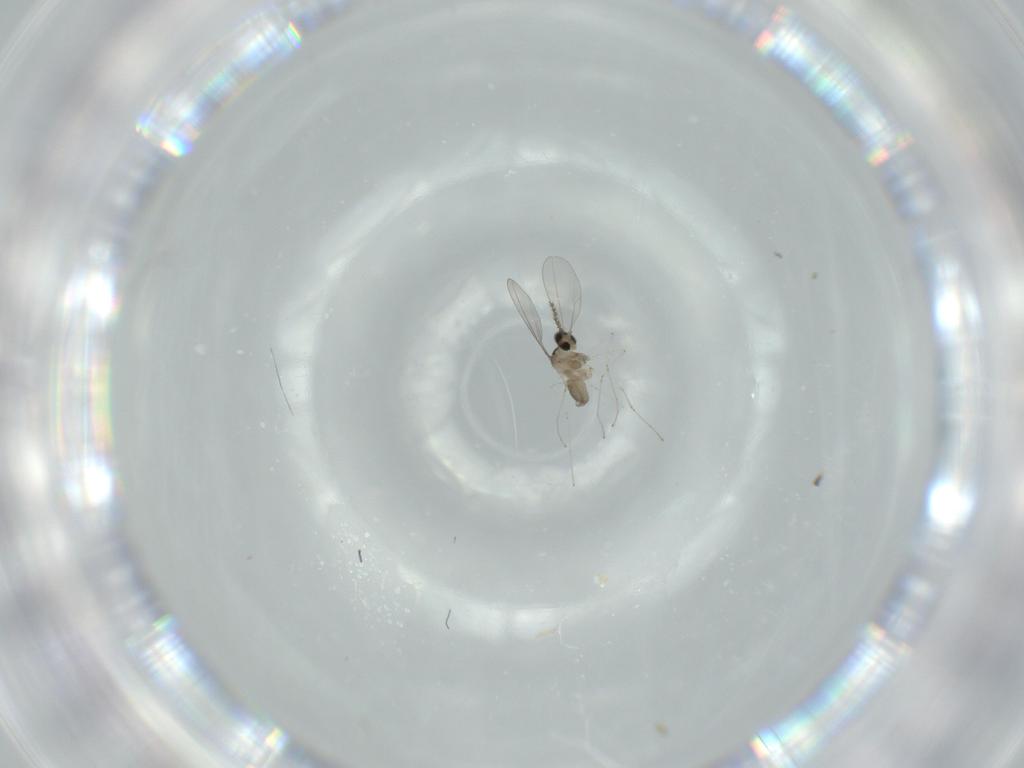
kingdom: Animalia
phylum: Arthropoda
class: Insecta
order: Diptera
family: Cecidomyiidae
